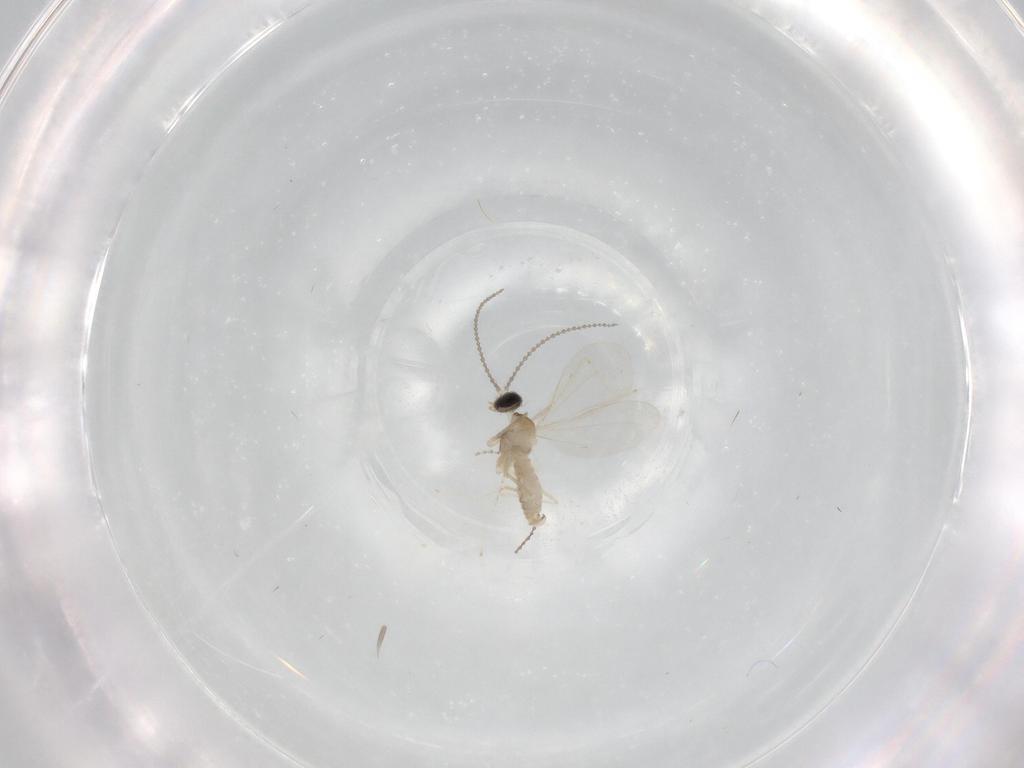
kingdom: Animalia
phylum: Arthropoda
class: Insecta
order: Diptera
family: Cecidomyiidae
